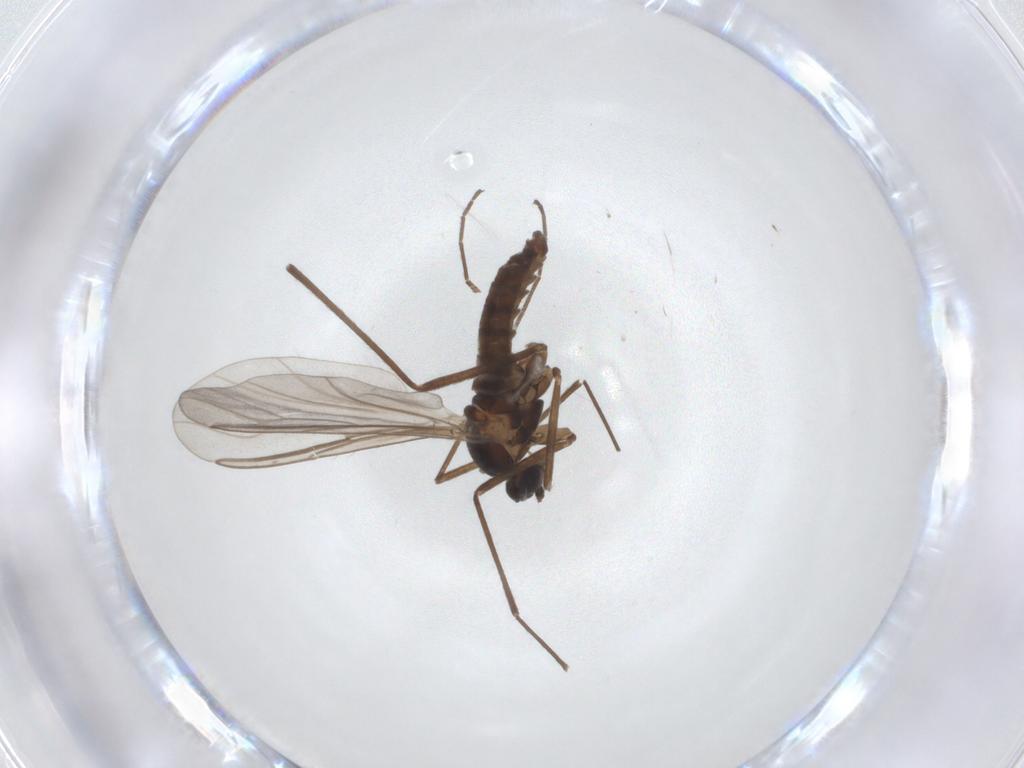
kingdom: Animalia
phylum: Arthropoda
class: Insecta
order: Diptera
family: Cecidomyiidae
